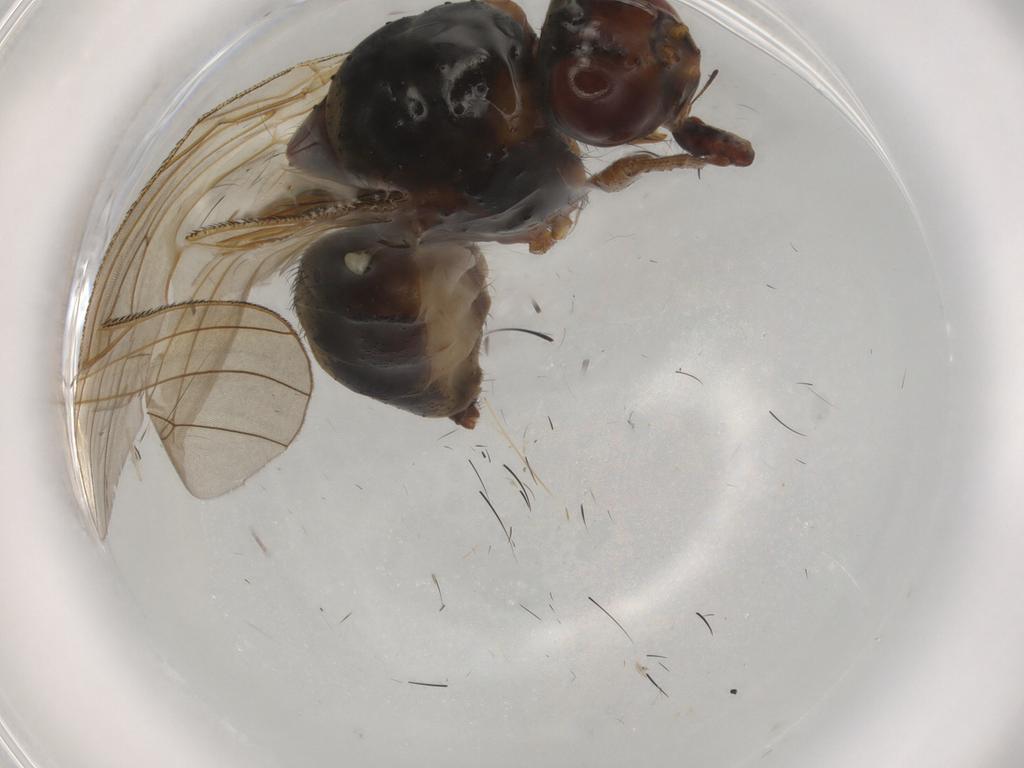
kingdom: Animalia
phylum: Arthropoda
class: Insecta
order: Diptera
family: Anthomyiidae
